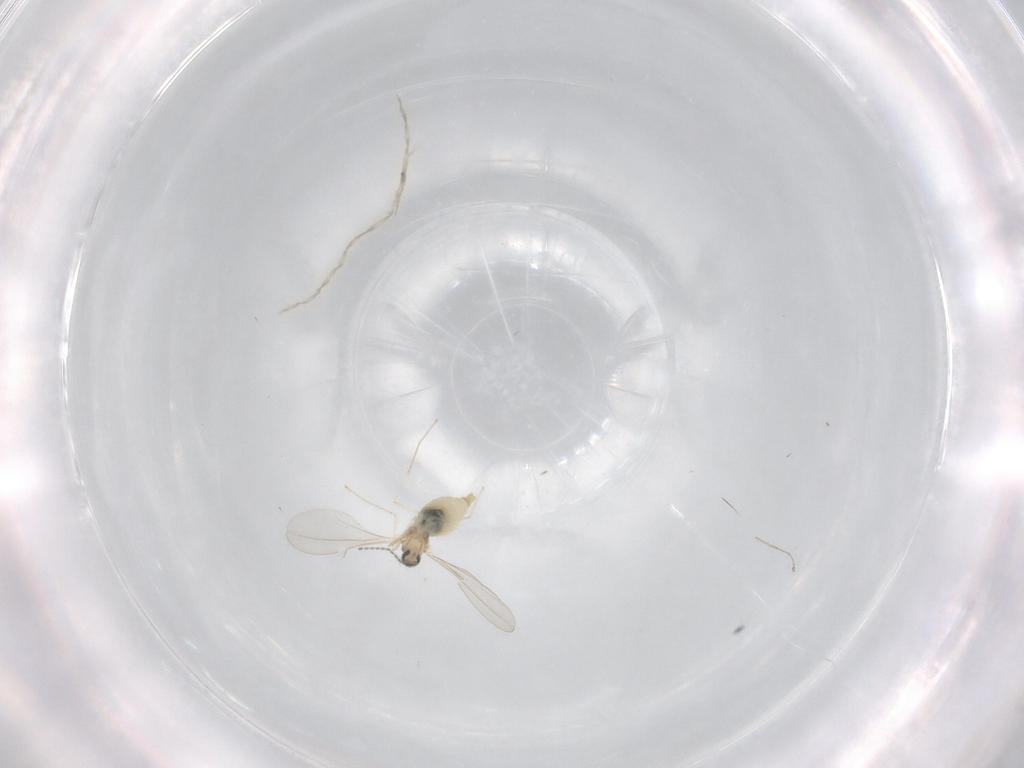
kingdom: Animalia
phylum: Arthropoda
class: Insecta
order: Diptera
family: Cecidomyiidae
